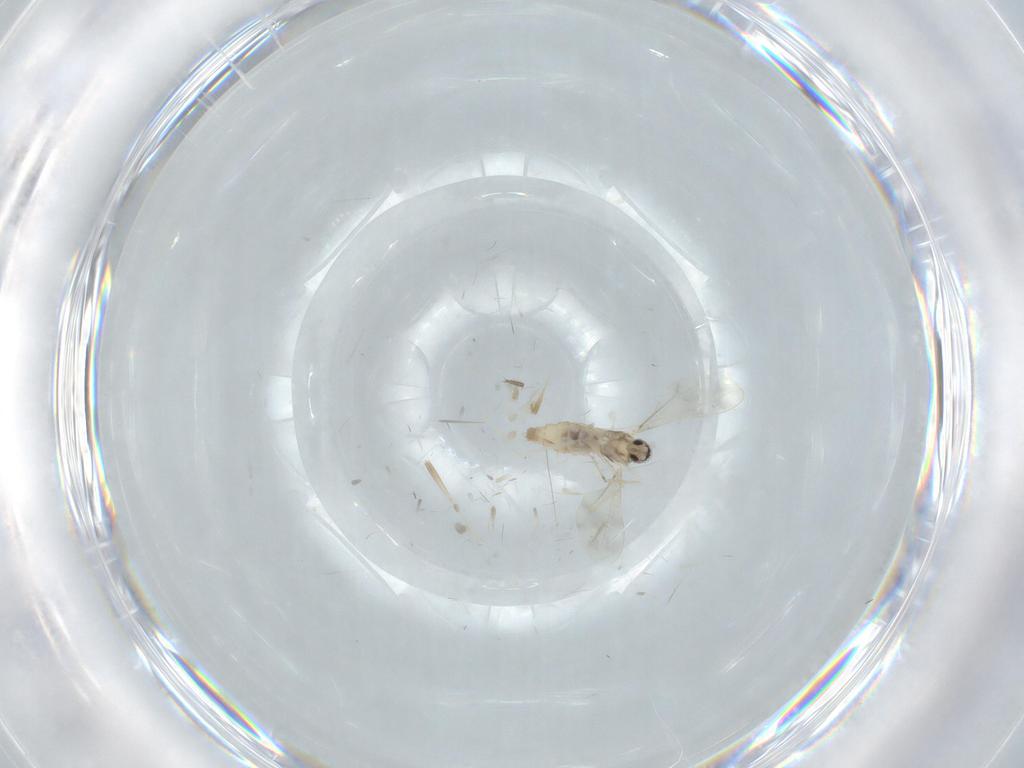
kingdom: Animalia
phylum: Arthropoda
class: Insecta
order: Diptera
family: Stratiomyidae
